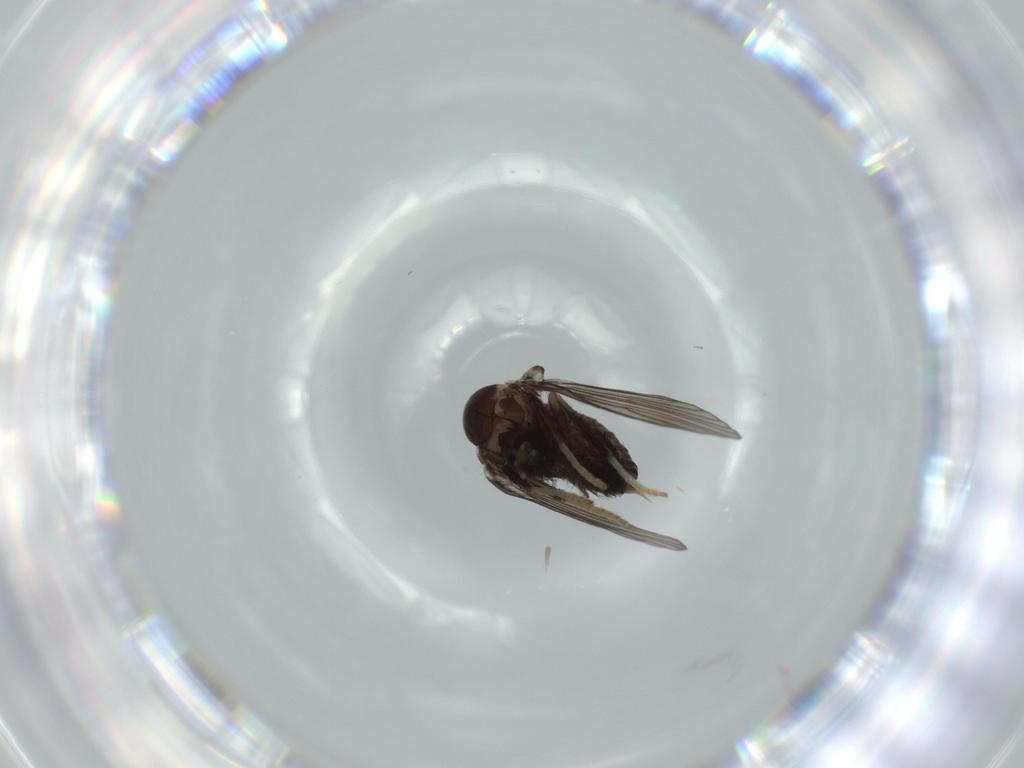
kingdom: Animalia
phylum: Arthropoda
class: Insecta
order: Diptera
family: Psychodidae
